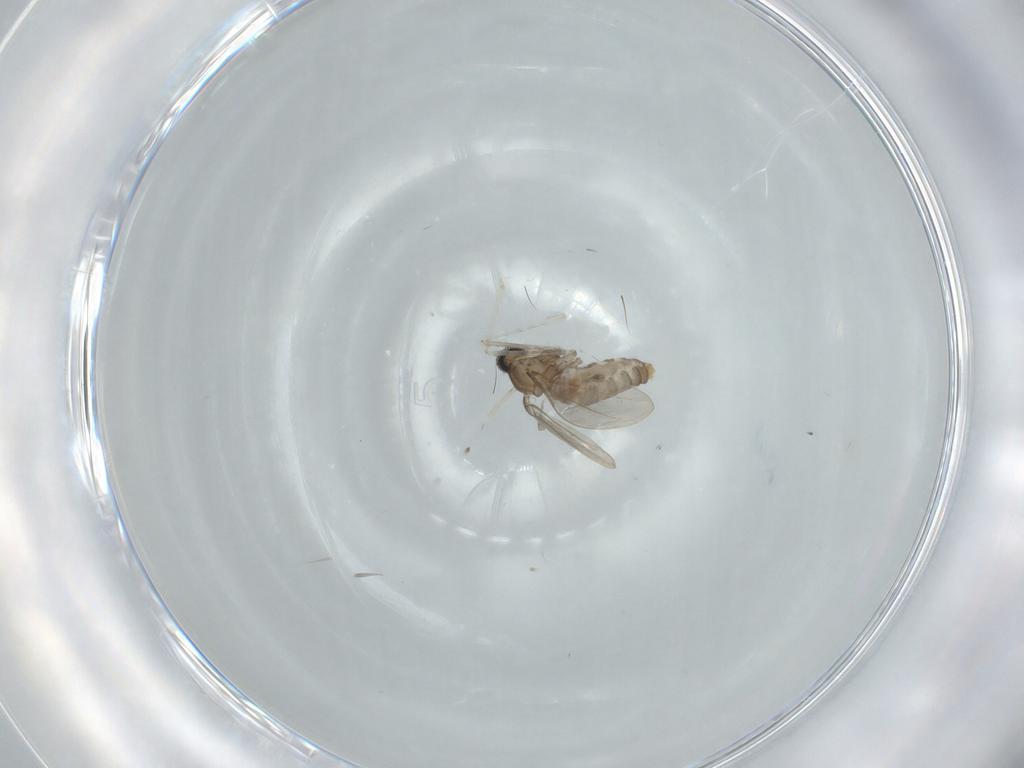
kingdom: Animalia
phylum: Arthropoda
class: Insecta
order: Diptera
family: Cecidomyiidae
